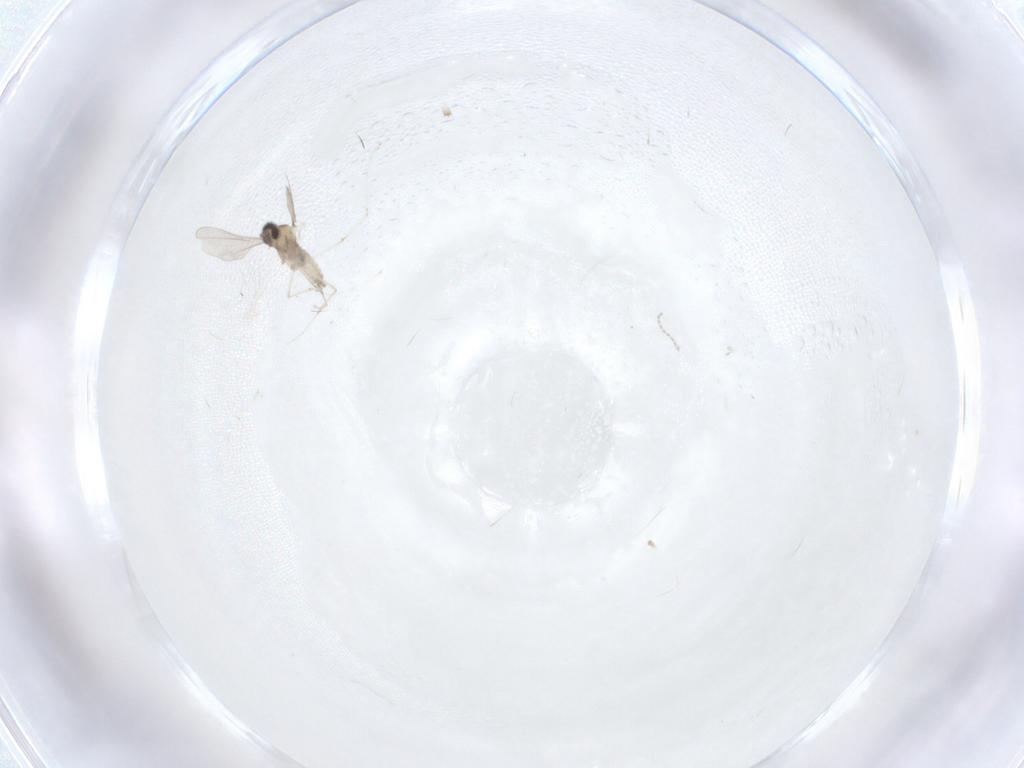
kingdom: Animalia
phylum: Arthropoda
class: Insecta
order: Diptera
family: Cecidomyiidae
